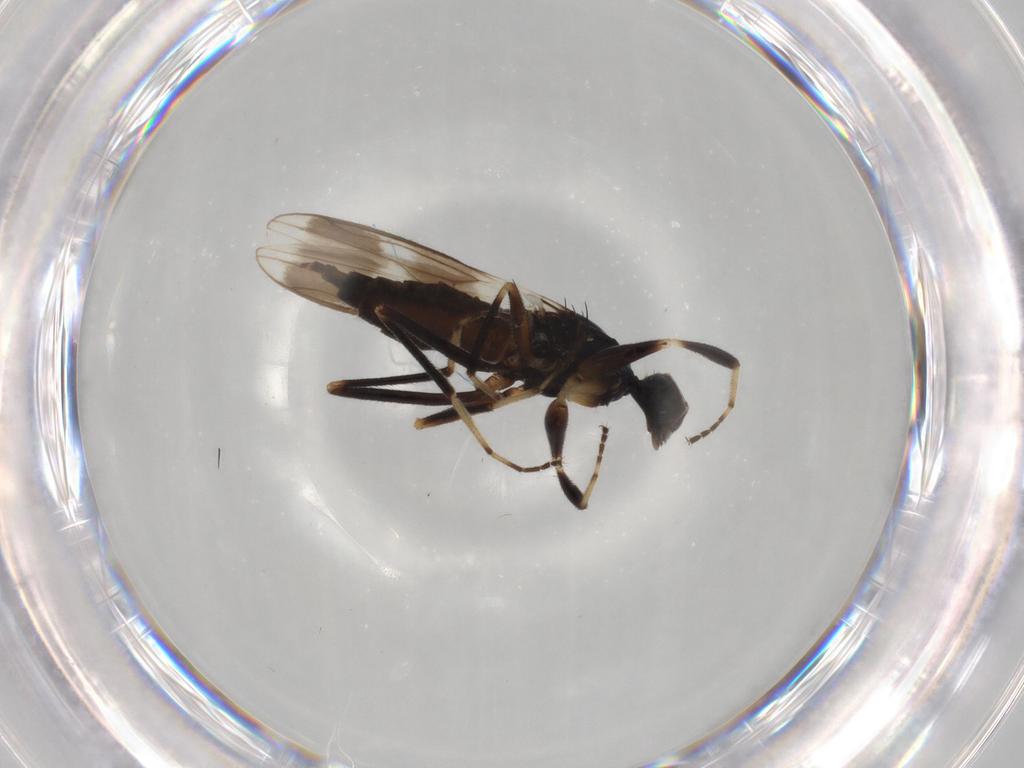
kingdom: Animalia
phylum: Arthropoda
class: Insecta
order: Diptera
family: Hybotidae
